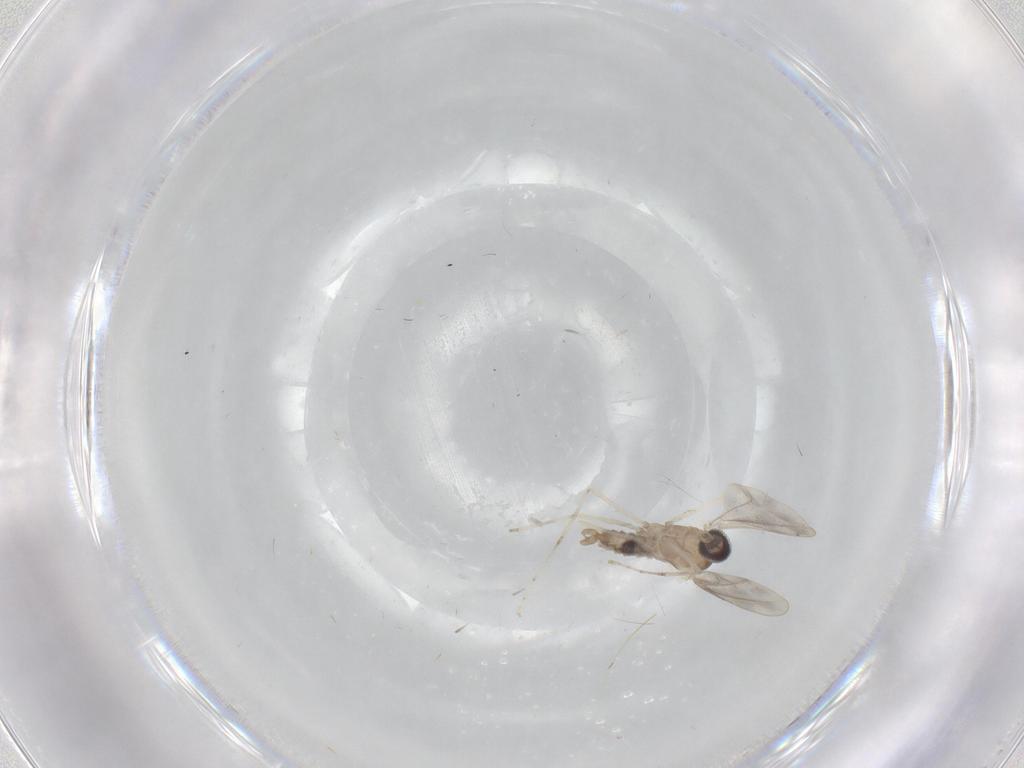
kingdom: Animalia
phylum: Arthropoda
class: Insecta
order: Diptera
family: Cecidomyiidae
